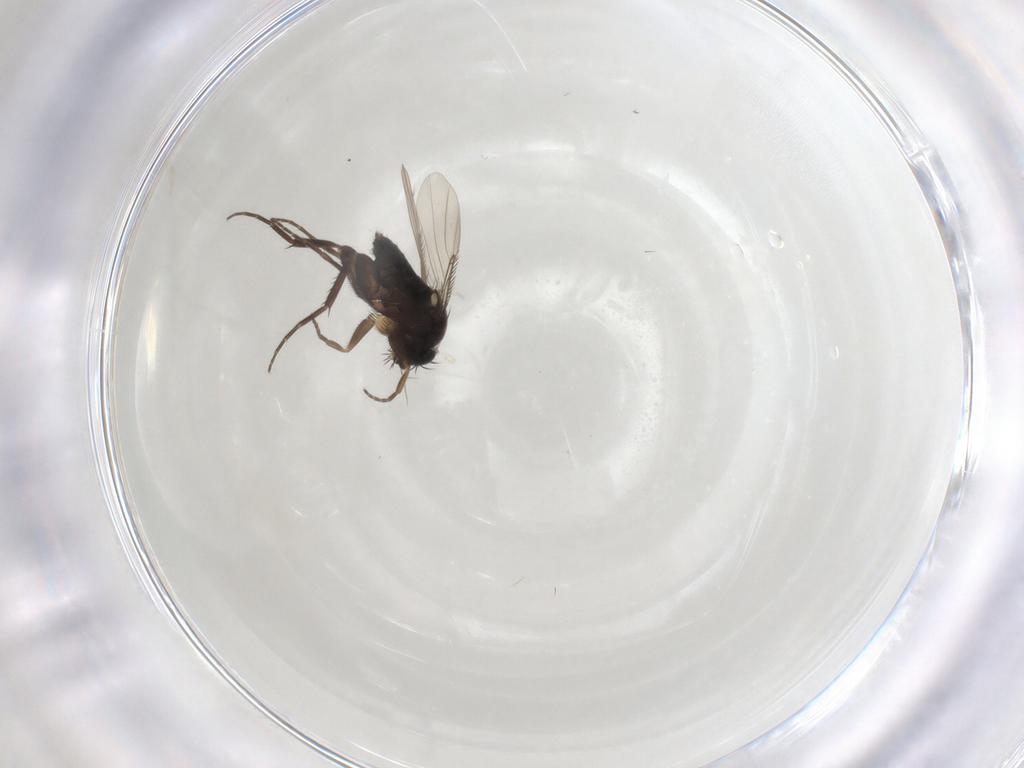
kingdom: Animalia
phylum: Arthropoda
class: Insecta
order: Diptera
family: Phoridae
